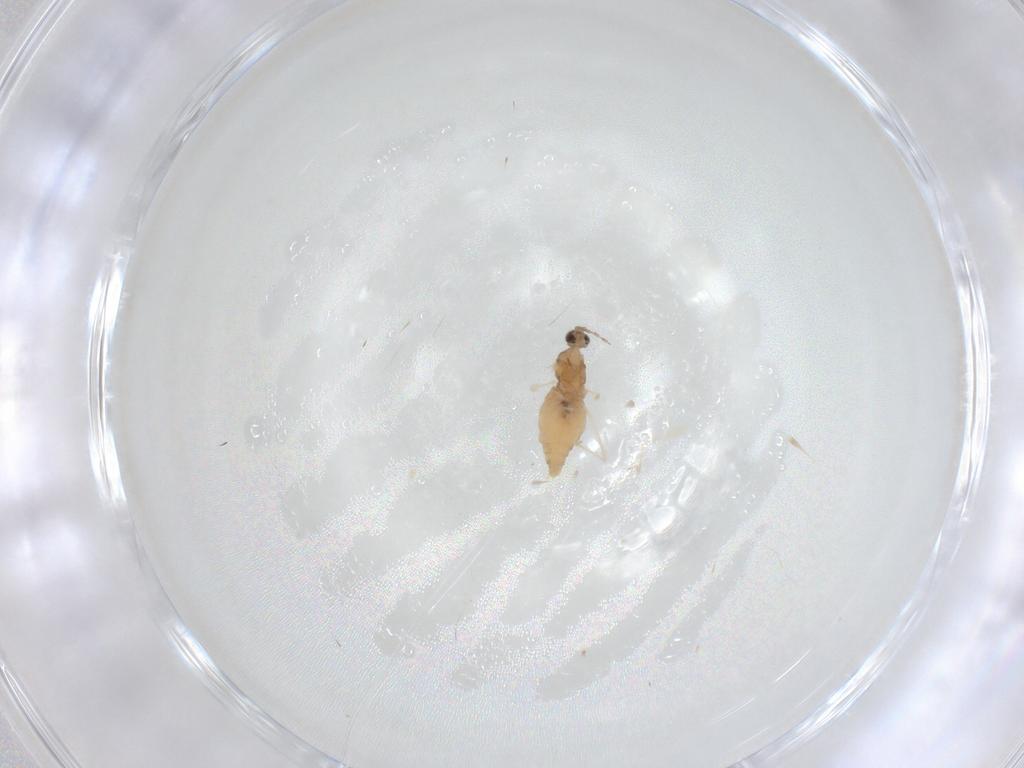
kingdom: Animalia
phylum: Arthropoda
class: Insecta
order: Diptera
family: Cecidomyiidae
